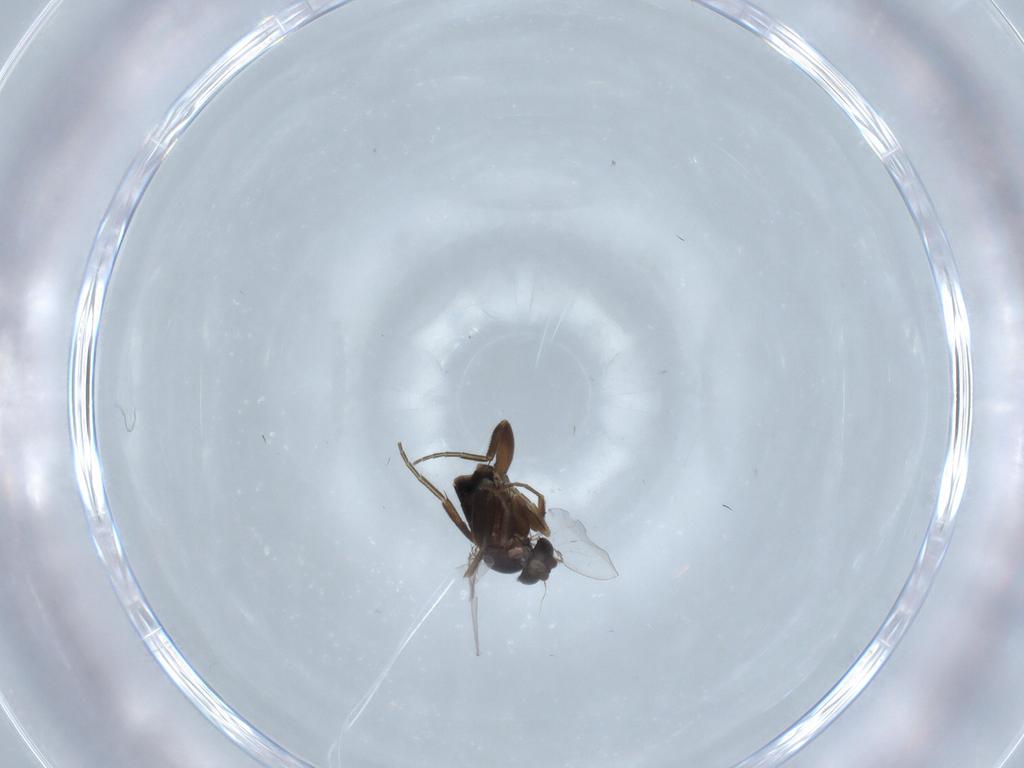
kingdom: Animalia
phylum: Arthropoda
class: Insecta
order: Diptera
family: Phoridae
